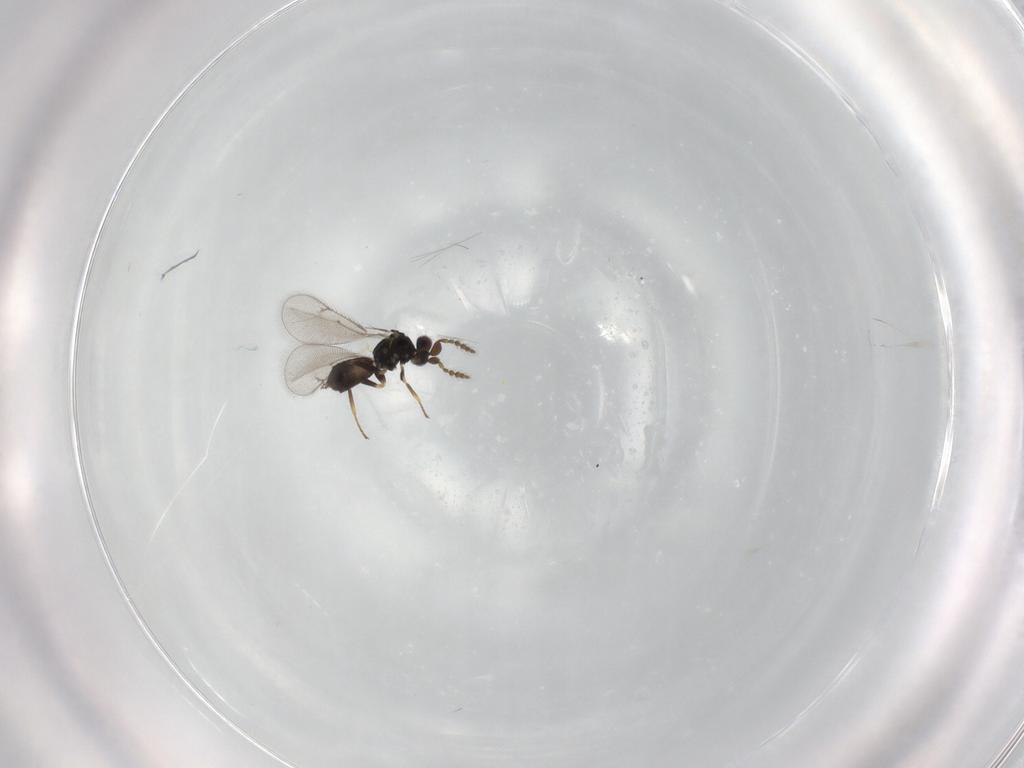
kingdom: Animalia
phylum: Arthropoda
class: Insecta
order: Hymenoptera
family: Eulophidae
